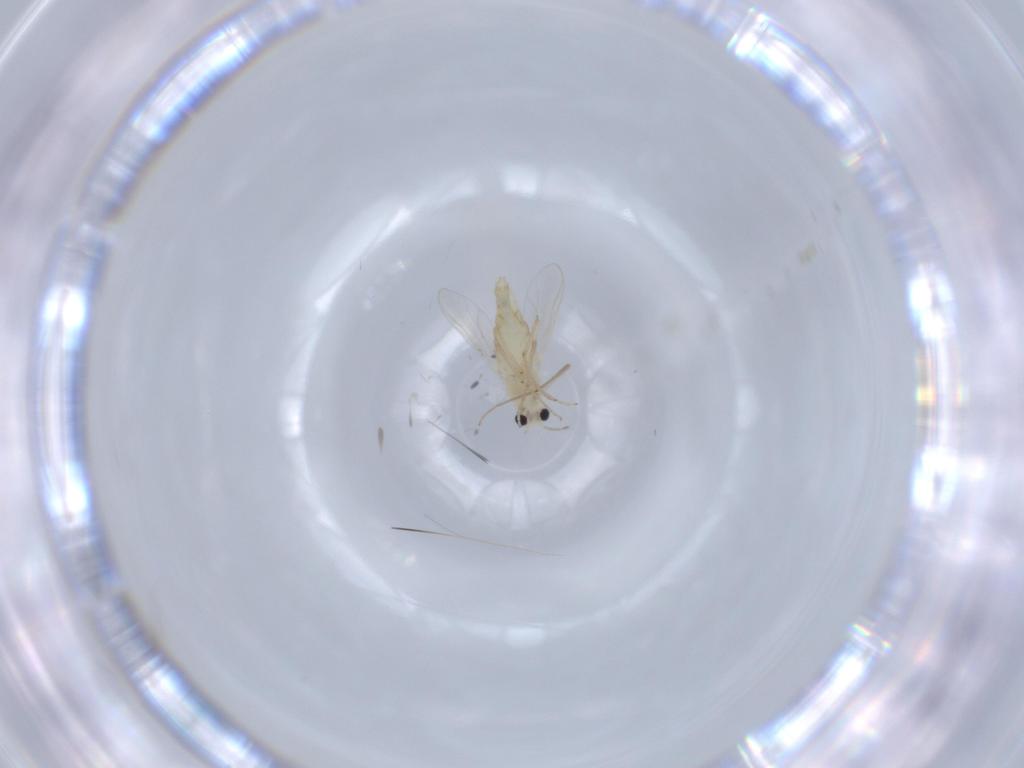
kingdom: Animalia
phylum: Arthropoda
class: Insecta
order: Diptera
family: Chironomidae
